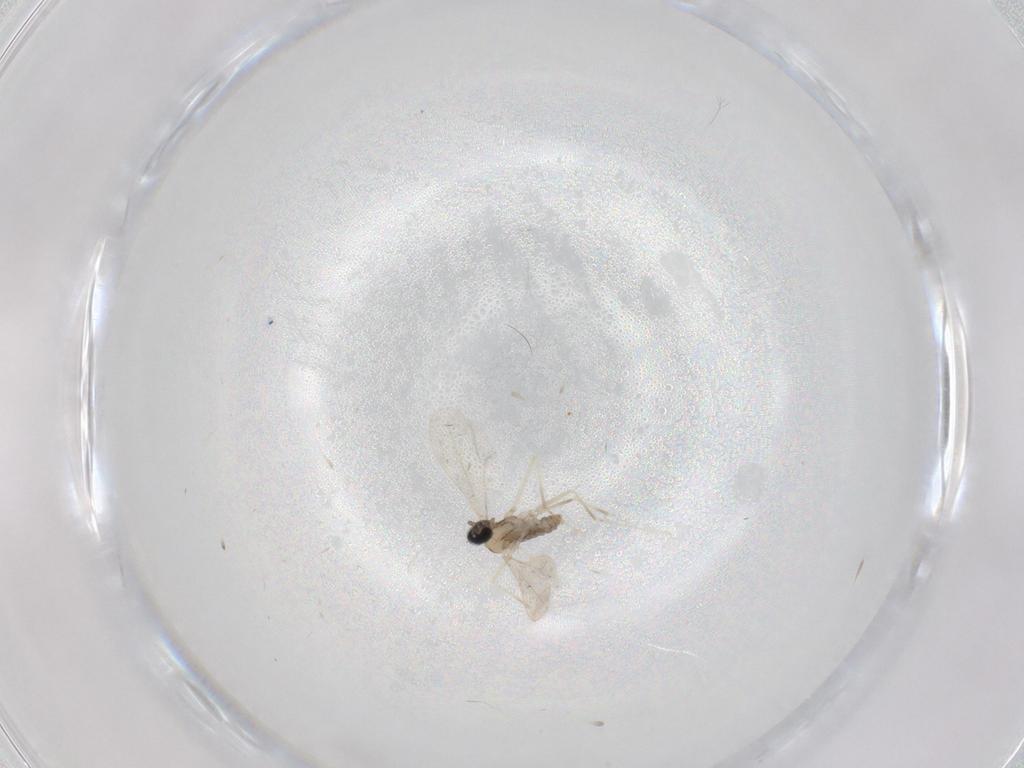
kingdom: Animalia
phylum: Arthropoda
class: Insecta
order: Diptera
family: Cecidomyiidae
